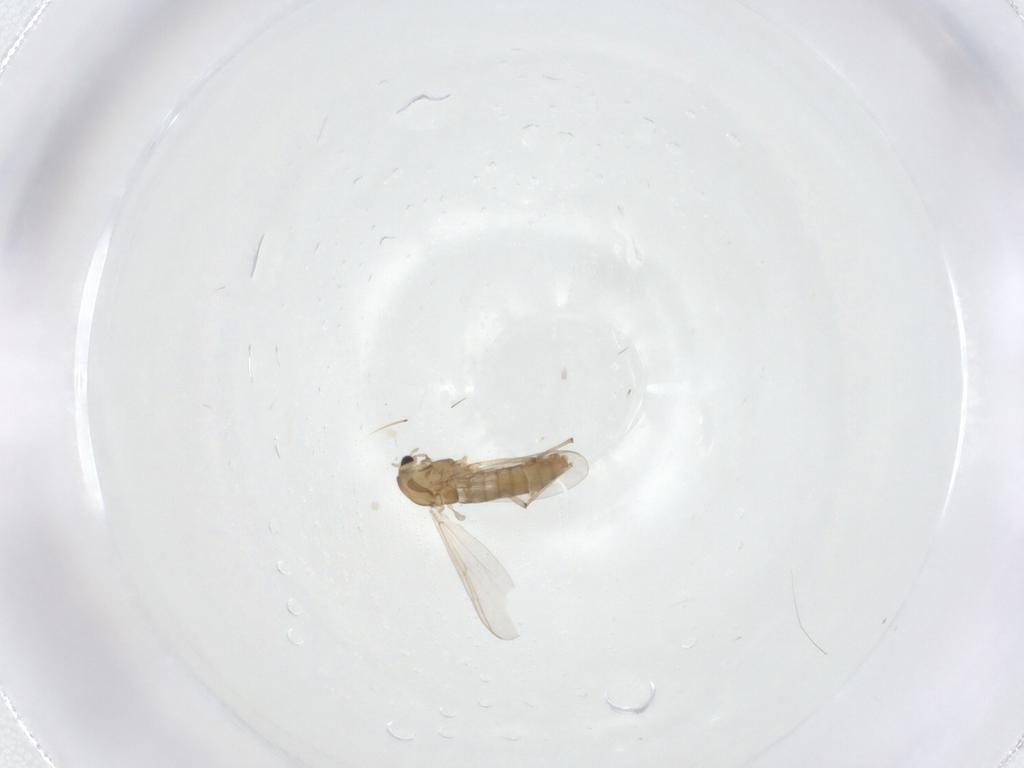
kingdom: Animalia
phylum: Arthropoda
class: Insecta
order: Diptera
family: Chironomidae
